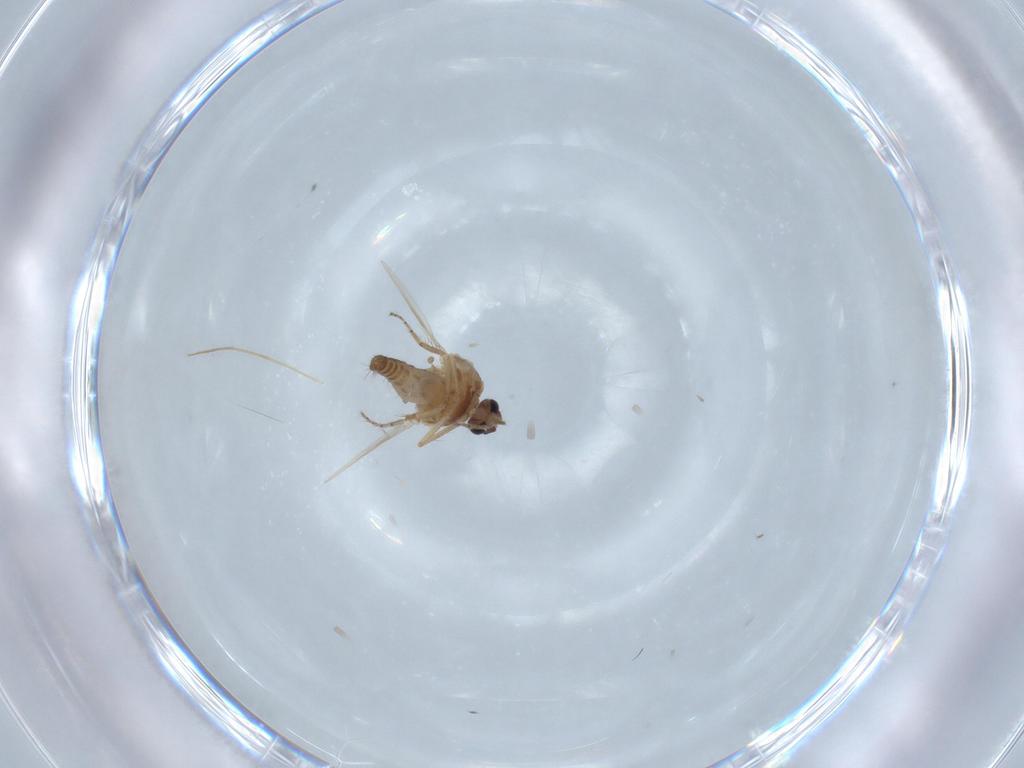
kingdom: Animalia
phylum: Arthropoda
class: Insecta
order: Diptera
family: Ceratopogonidae
